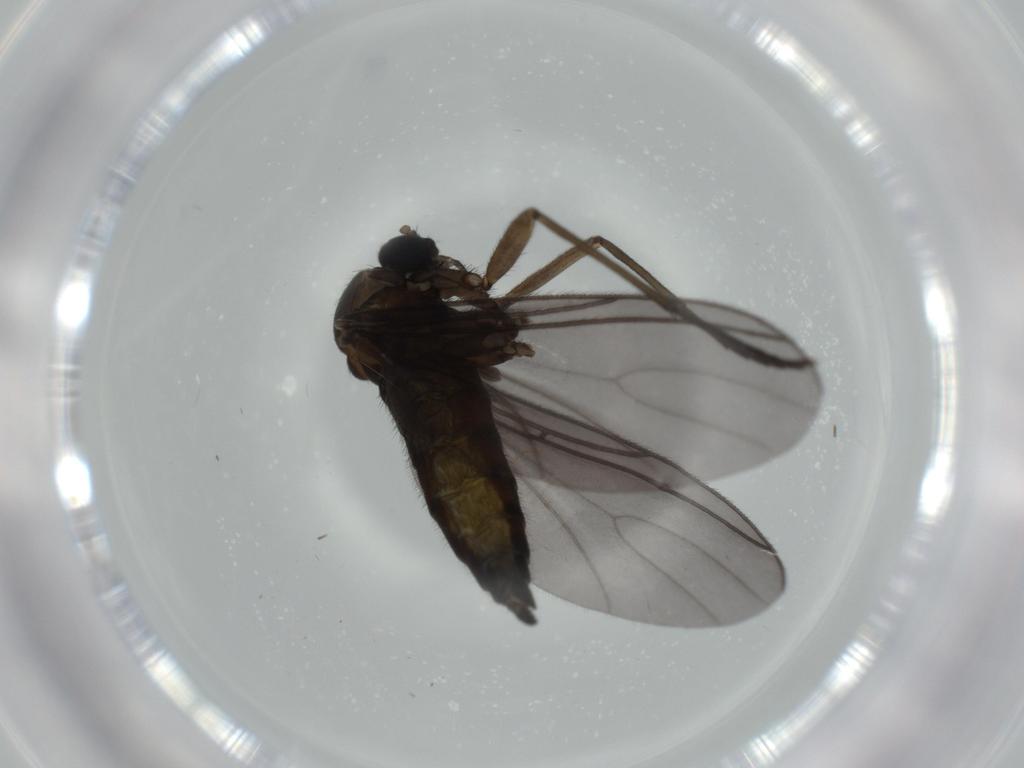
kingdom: Animalia
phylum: Arthropoda
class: Insecta
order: Diptera
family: Sciaridae
